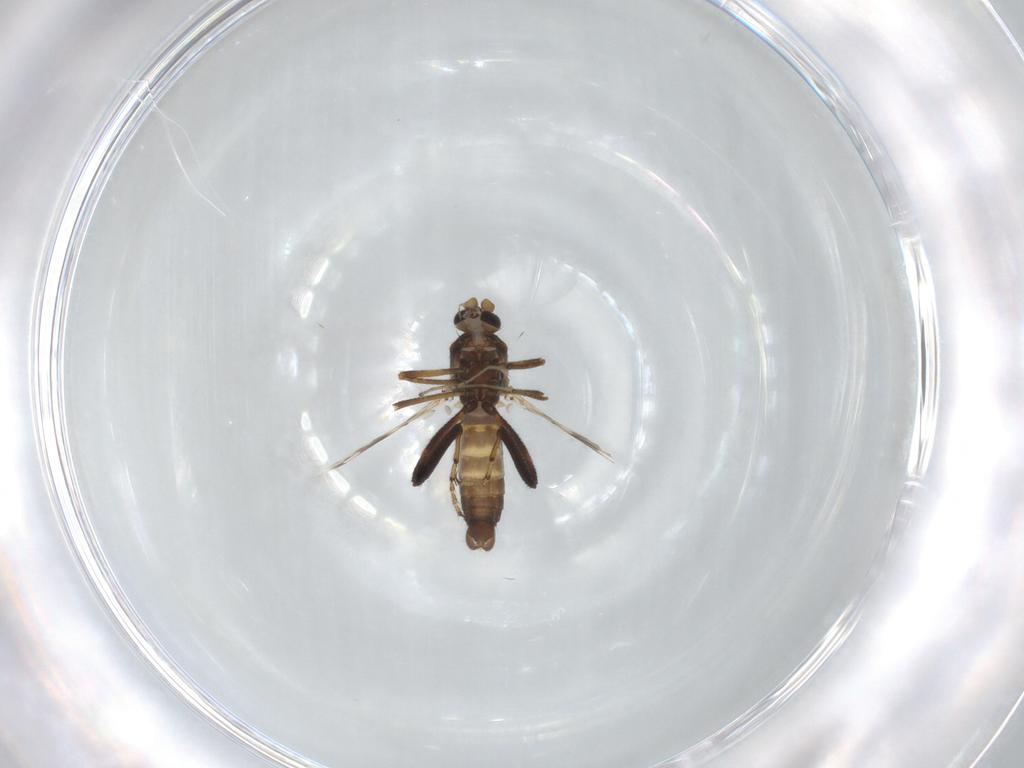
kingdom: Animalia
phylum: Arthropoda
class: Insecta
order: Diptera
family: Ceratopogonidae
